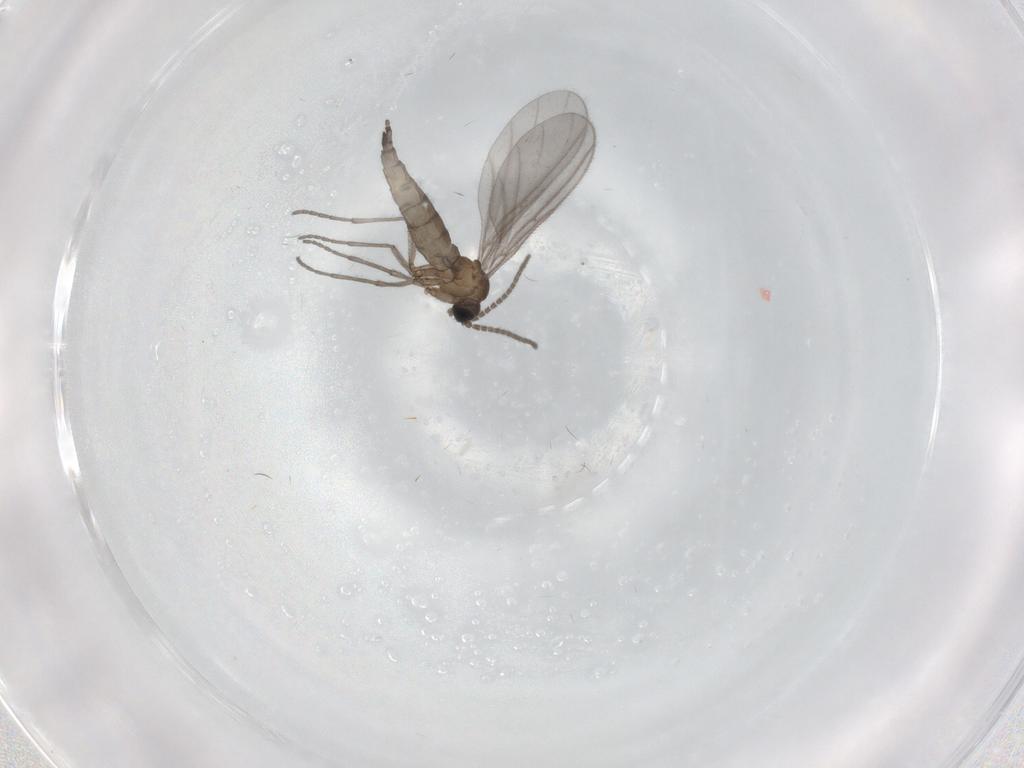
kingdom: Animalia
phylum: Arthropoda
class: Insecta
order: Diptera
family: Sciaridae
